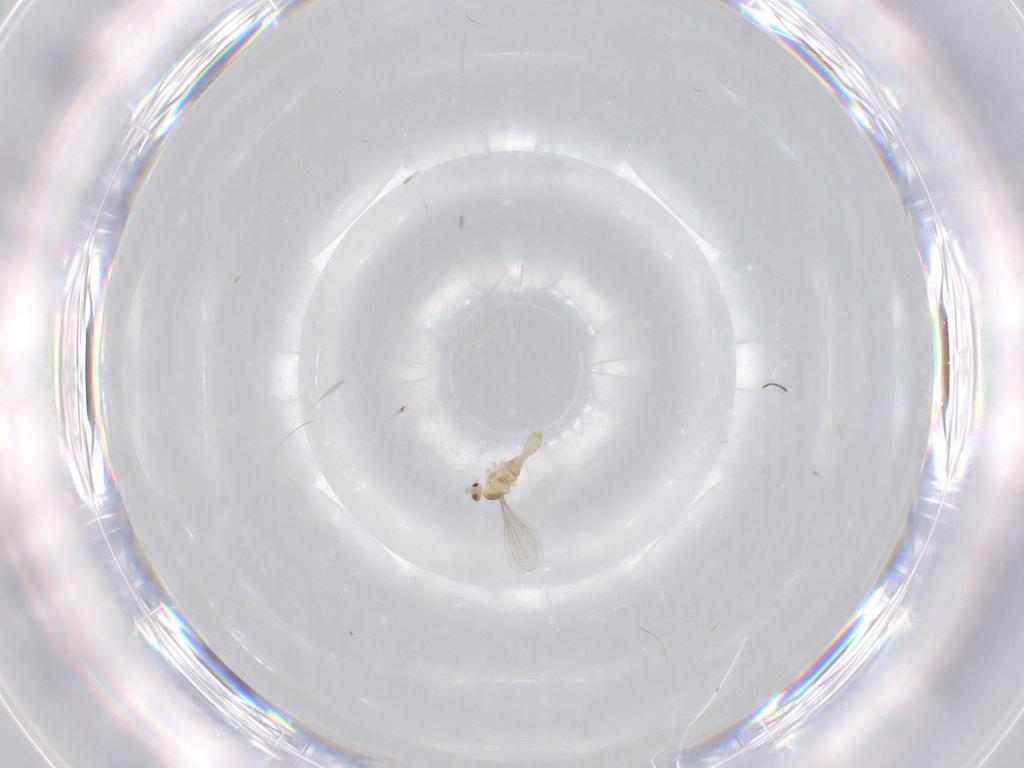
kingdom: Animalia
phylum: Arthropoda
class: Insecta
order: Diptera
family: Cecidomyiidae
